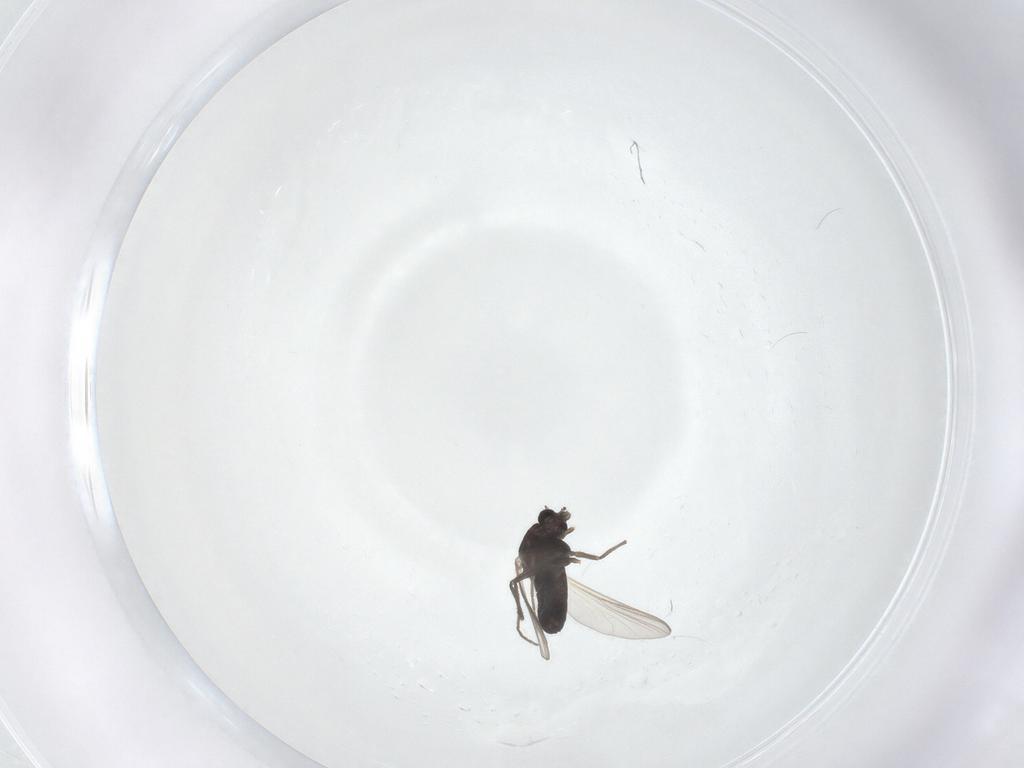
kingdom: Animalia
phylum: Arthropoda
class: Insecta
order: Diptera
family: Chironomidae
